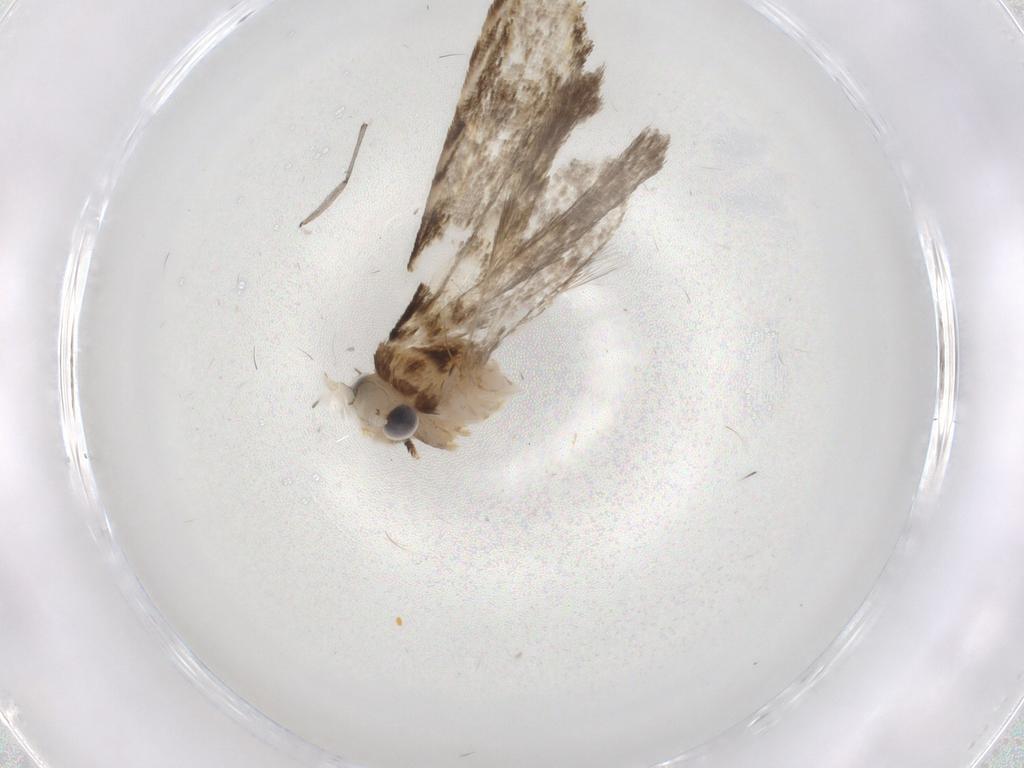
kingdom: Animalia
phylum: Arthropoda
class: Insecta
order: Lepidoptera
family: Tineidae
